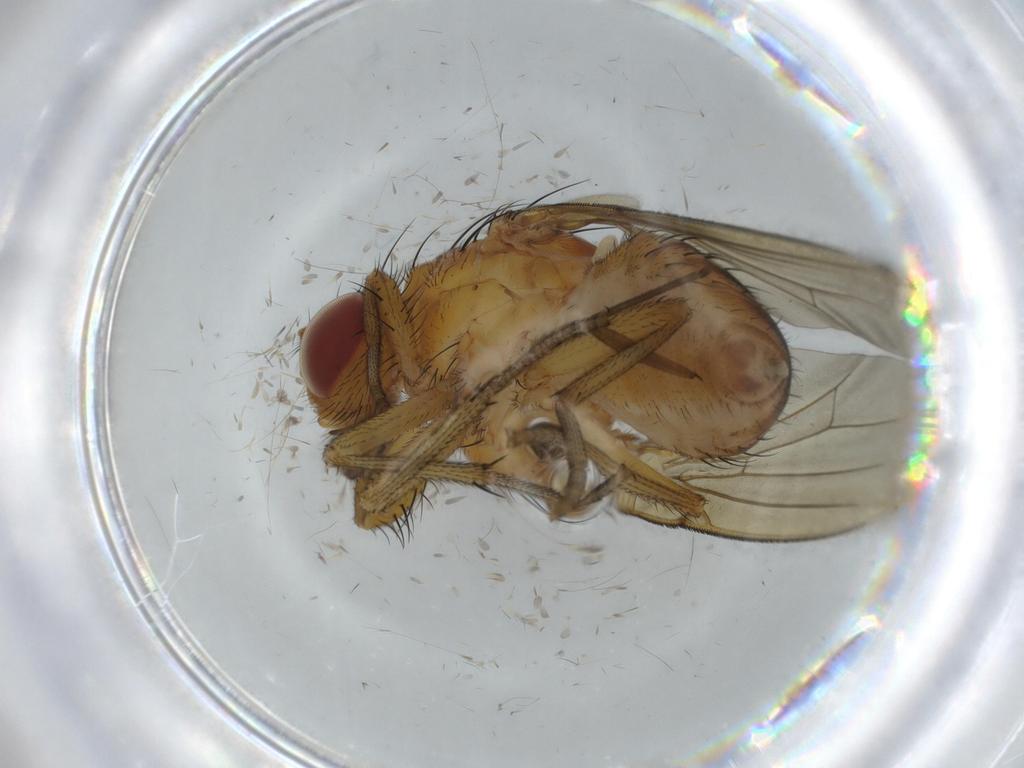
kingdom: Animalia
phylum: Arthropoda
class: Insecta
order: Diptera
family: Sciaridae
